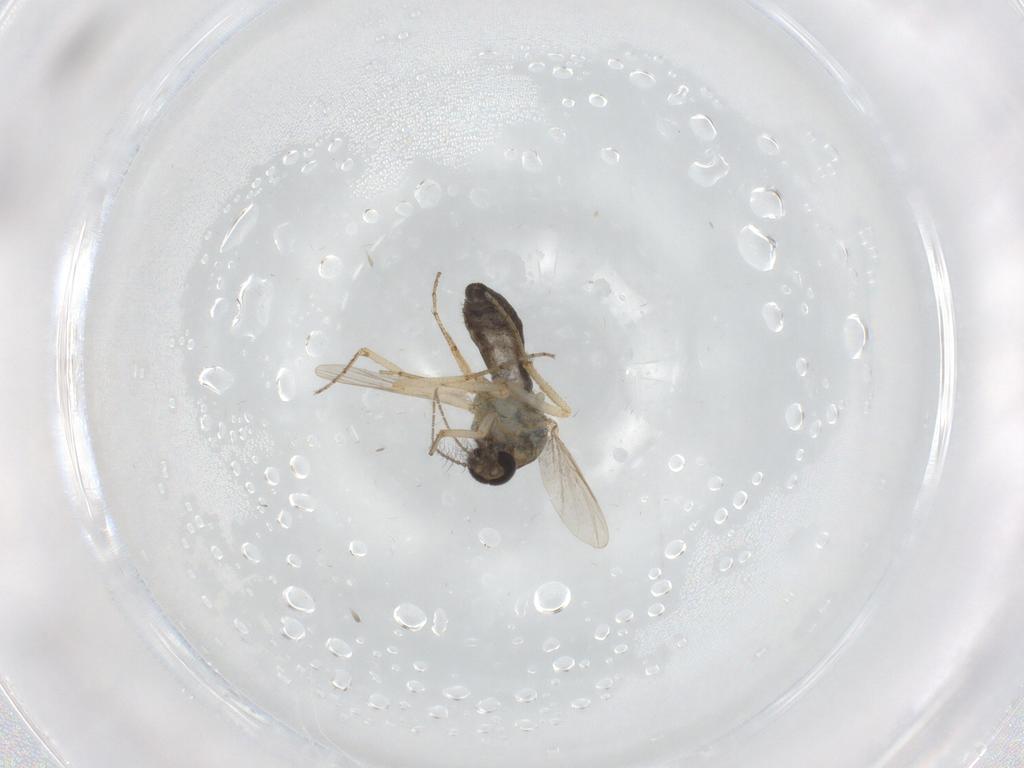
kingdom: Animalia
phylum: Arthropoda
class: Insecta
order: Diptera
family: Ceratopogonidae
